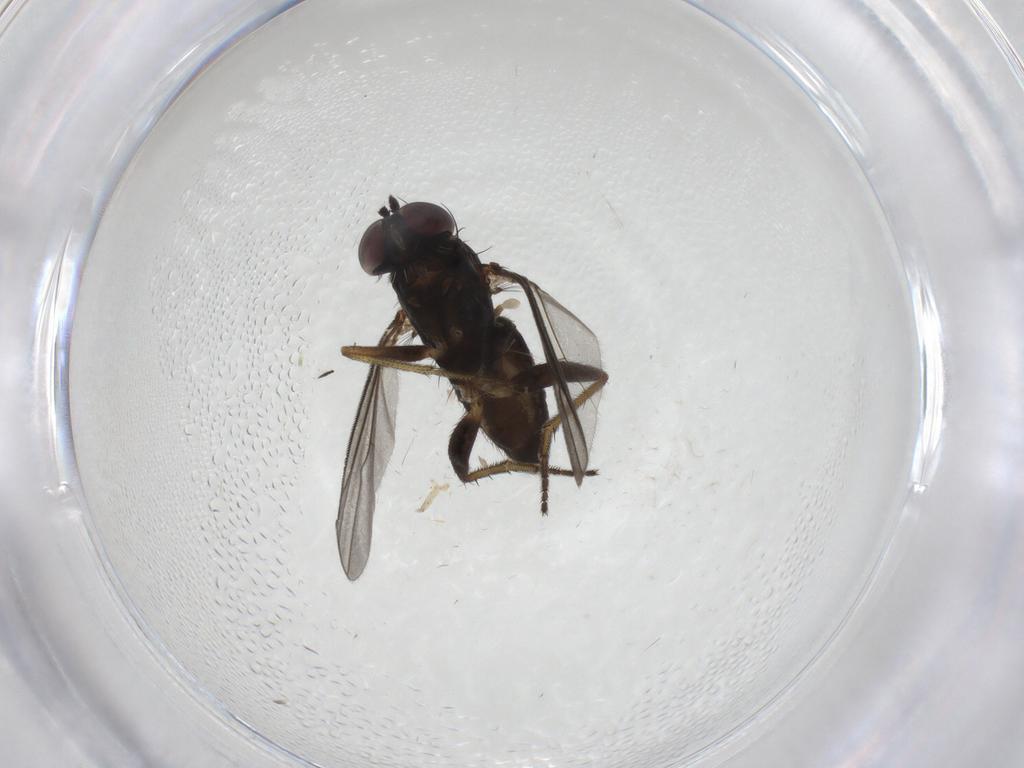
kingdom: Animalia
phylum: Arthropoda
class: Insecta
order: Diptera
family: Cecidomyiidae
